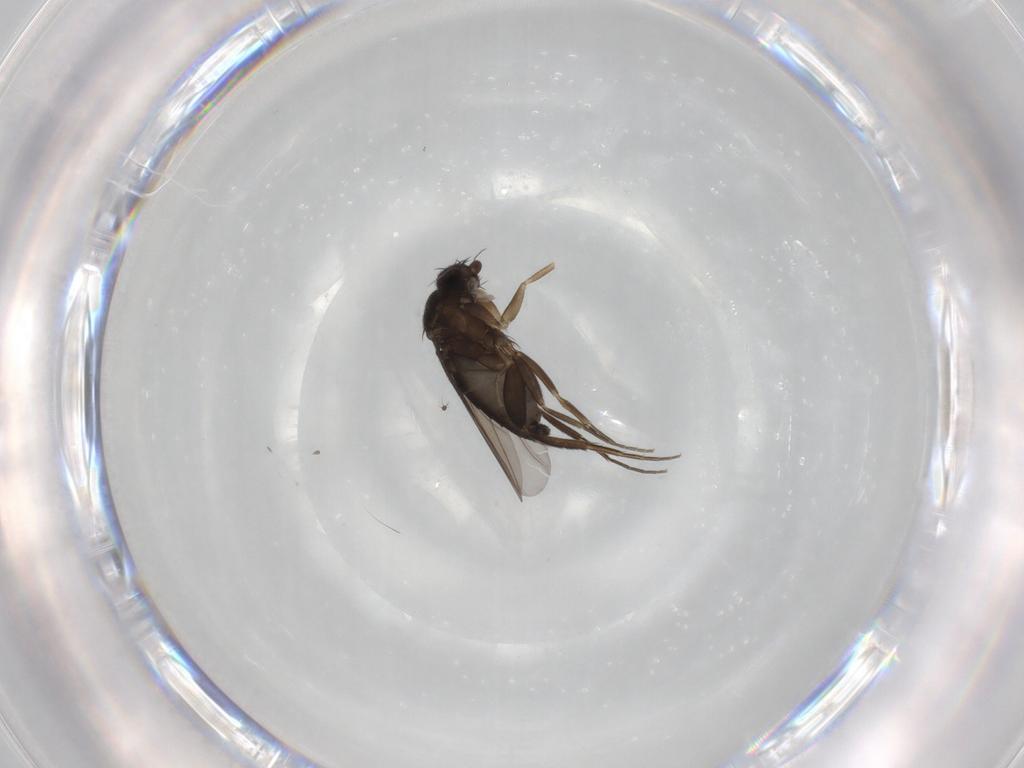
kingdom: Animalia
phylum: Arthropoda
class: Insecta
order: Diptera
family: Phoridae
